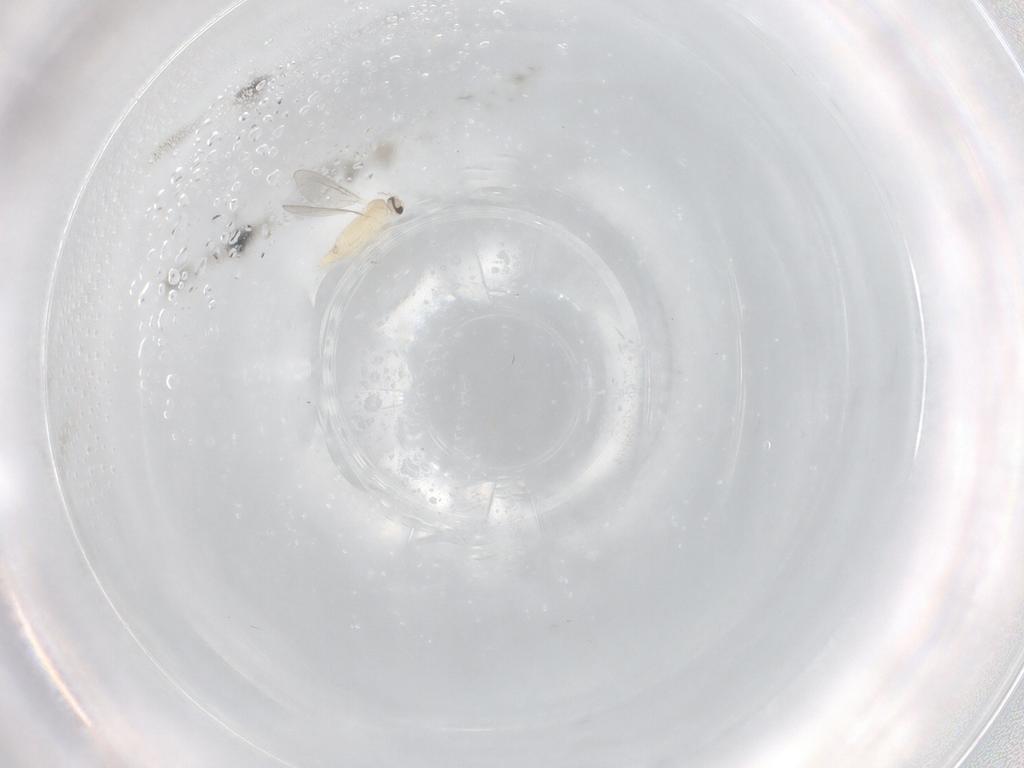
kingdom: Animalia
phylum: Arthropoda
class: Insecta
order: Diptera
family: Cecidomyiidae
